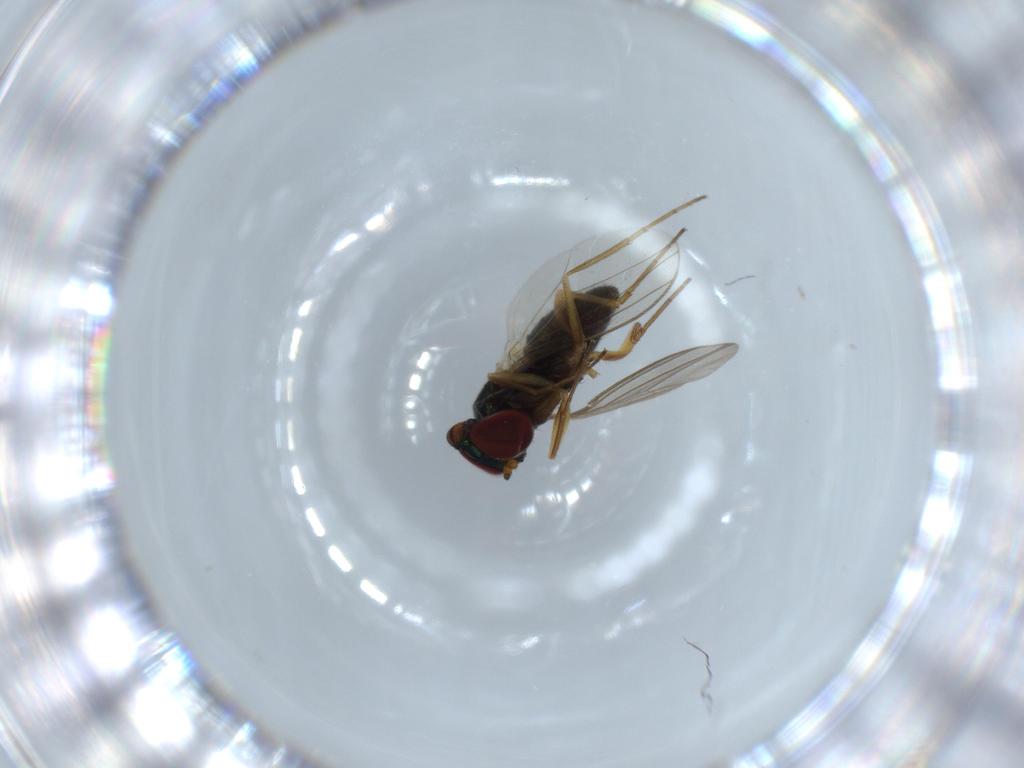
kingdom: Animalia
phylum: Arthropoda
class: Insecta
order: Diptera
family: Dolichopodidae
